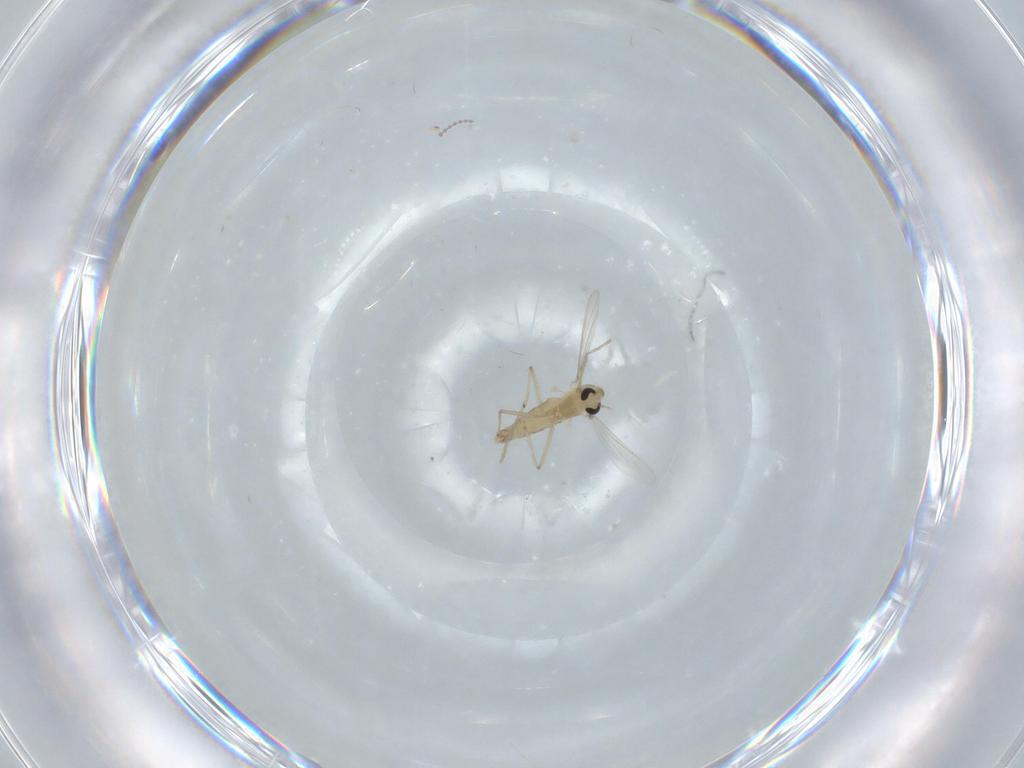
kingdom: Animalia
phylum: Arthropoda
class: Insecta
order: Diptera
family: Chironomidae
